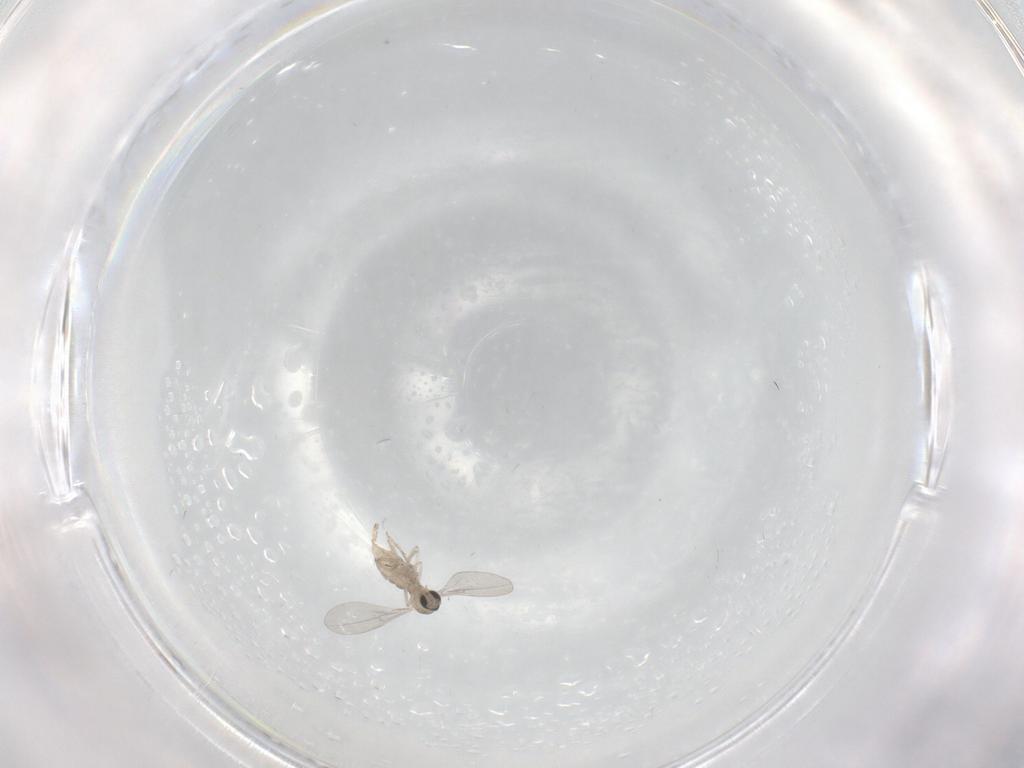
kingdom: Animalia
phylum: Arthropoda
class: Insecta
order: Diptera
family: Cecidomyiidae
